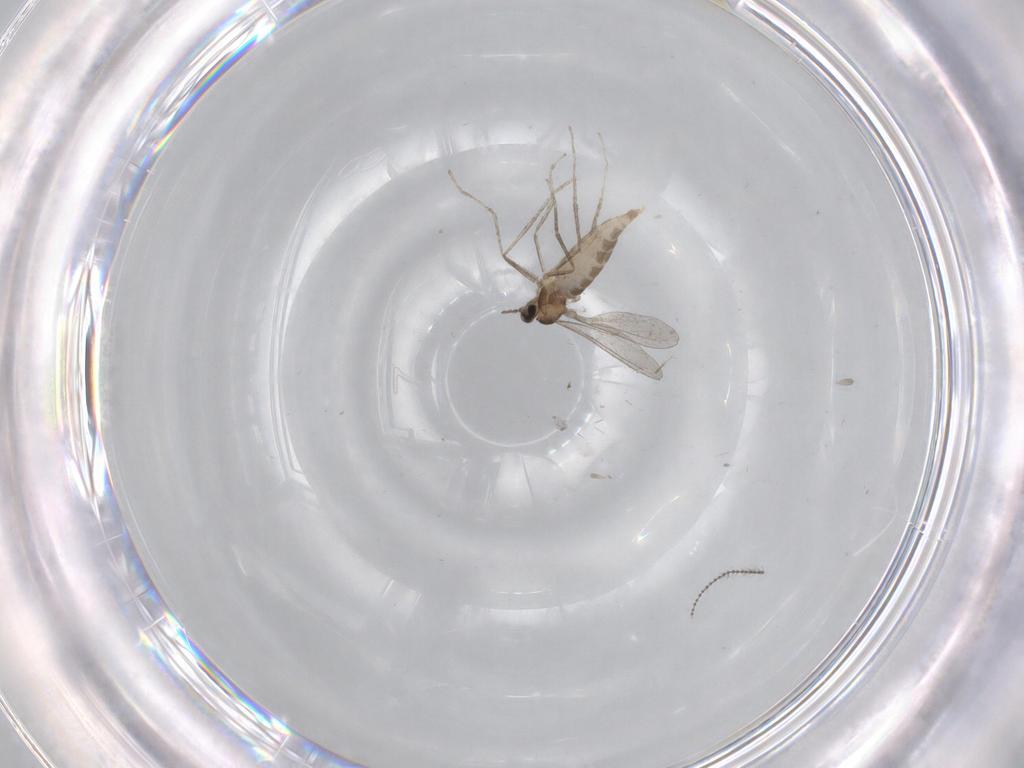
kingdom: Animalia
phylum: Arthropoda
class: Insecta
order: Diptera
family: Cecidomyiidae
